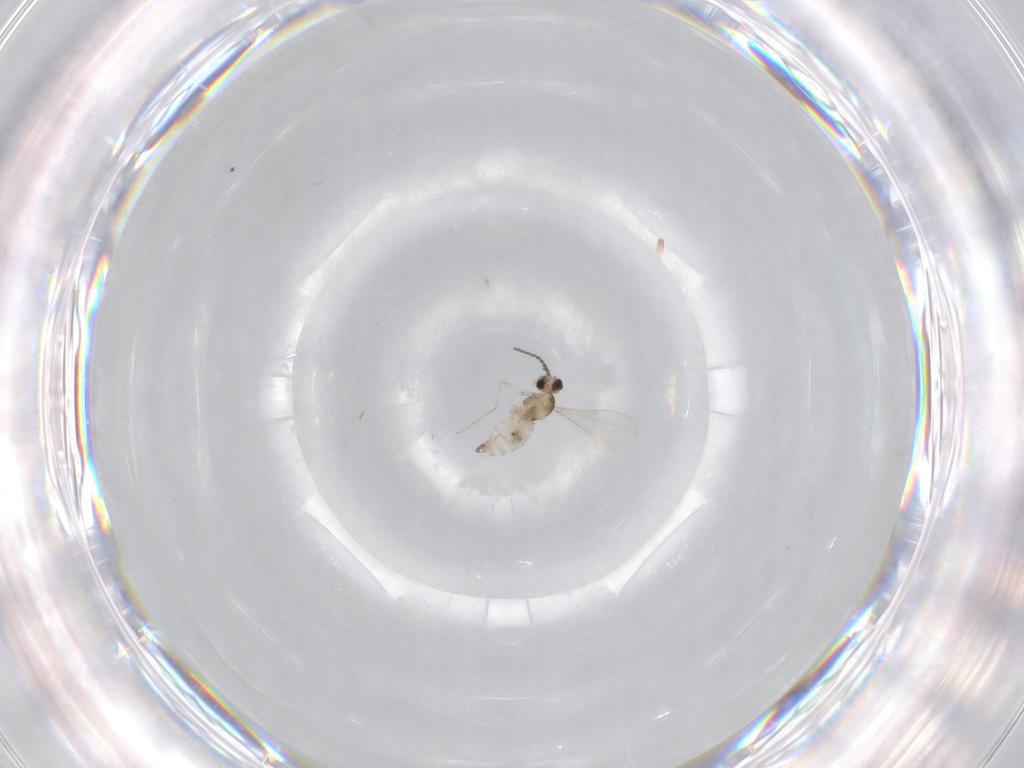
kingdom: Animalia
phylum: Arthropoda
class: Insecta
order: Diptera
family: Cecidomyiidae
